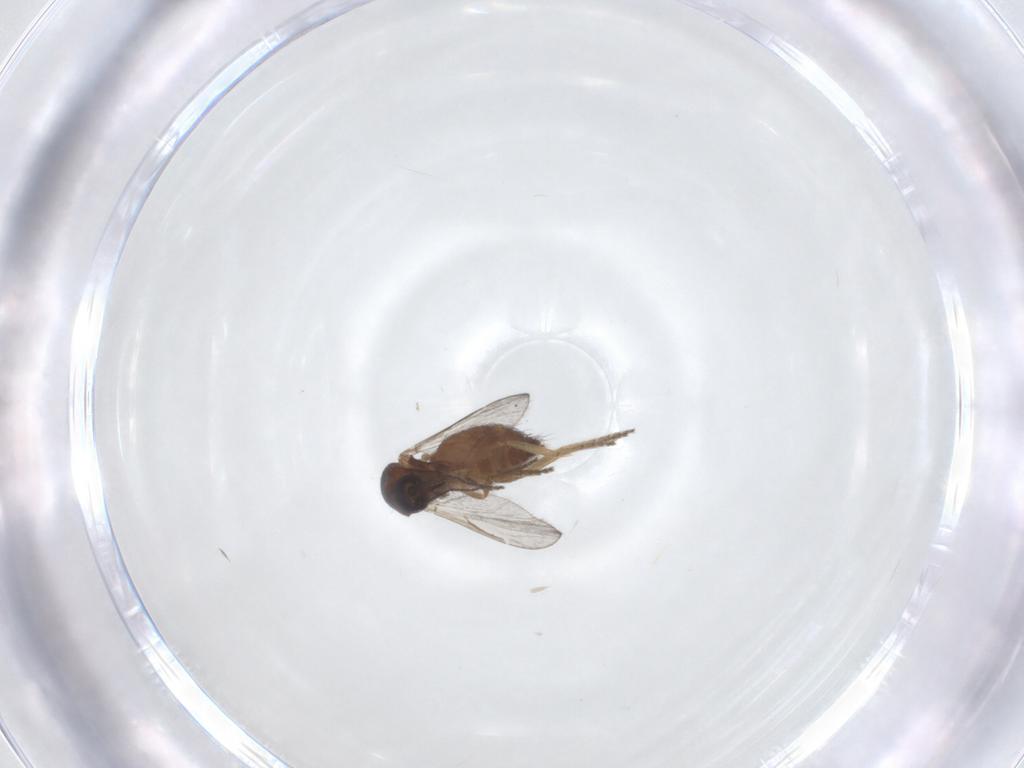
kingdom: Animalia
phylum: Arthropoda
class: Insecta
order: Diptera
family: Ceratopogonidae
